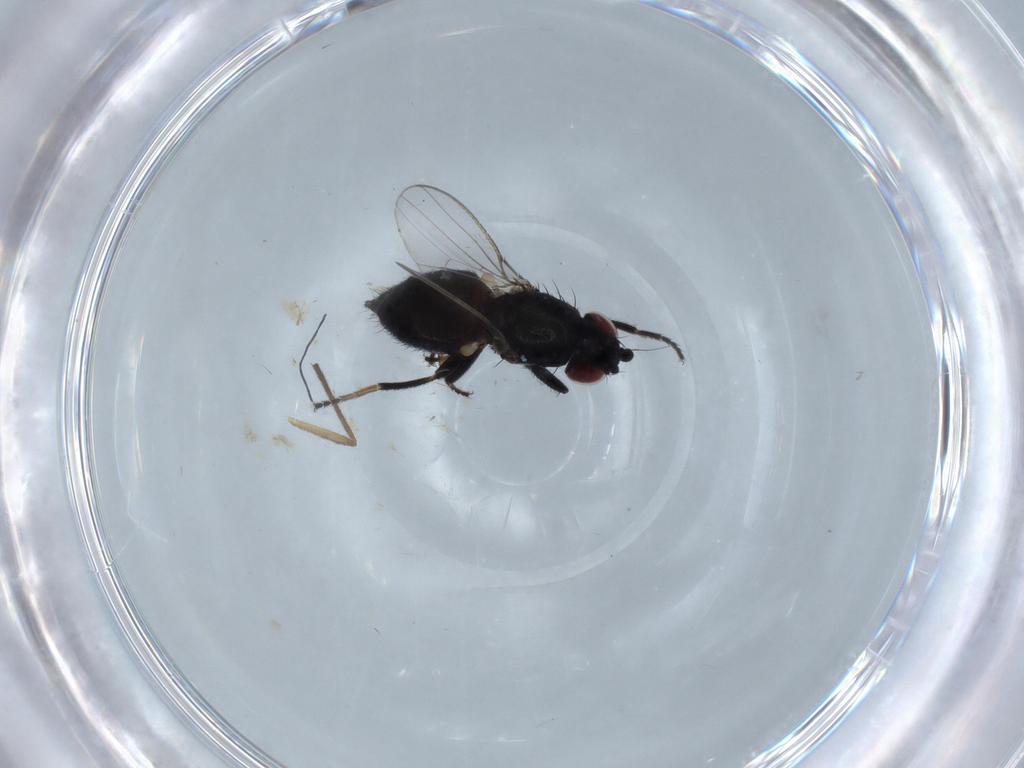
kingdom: Animalia
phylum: Arthropoda
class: Insecta
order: Diptera
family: Milichiidae
